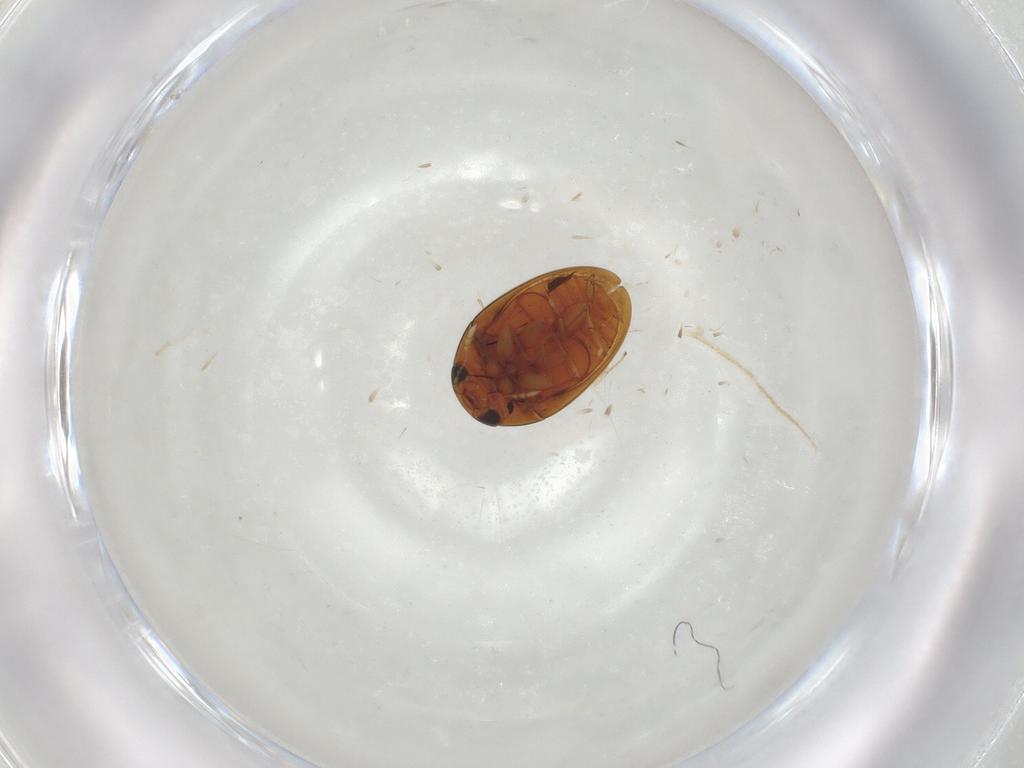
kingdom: Animalia
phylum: Arthropoda
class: Insecta
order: Coleoptera
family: Phalacridae
